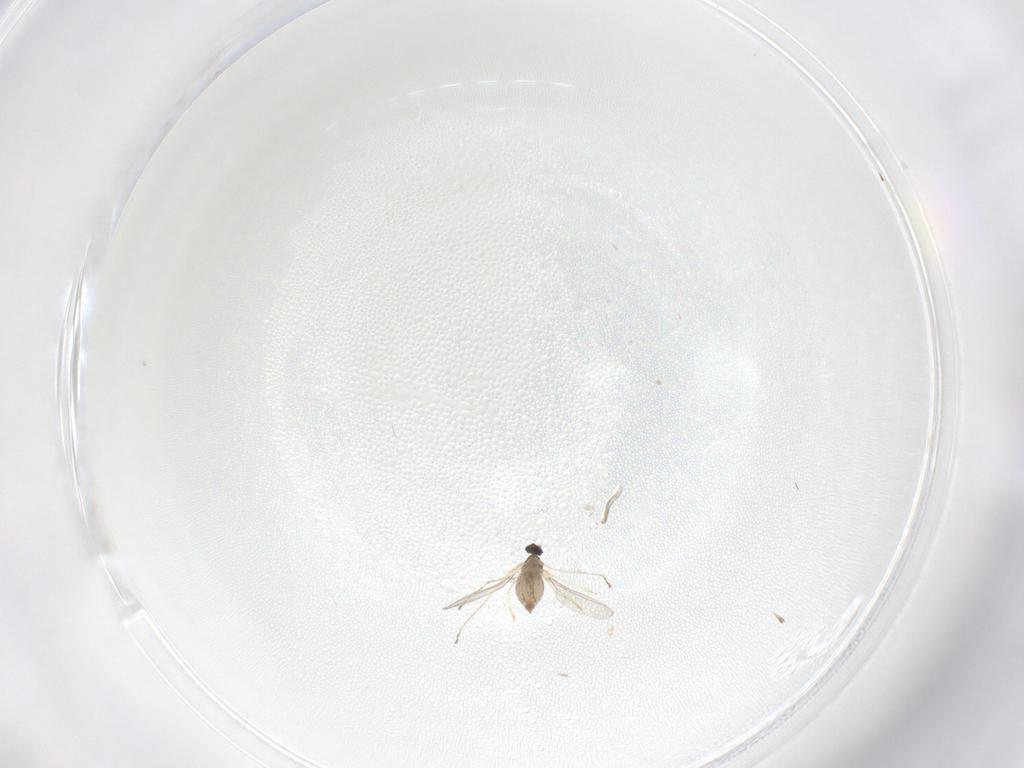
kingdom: Animalia
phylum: Arthropoda
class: Insecta
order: Diptera
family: Cecidomyiidae
